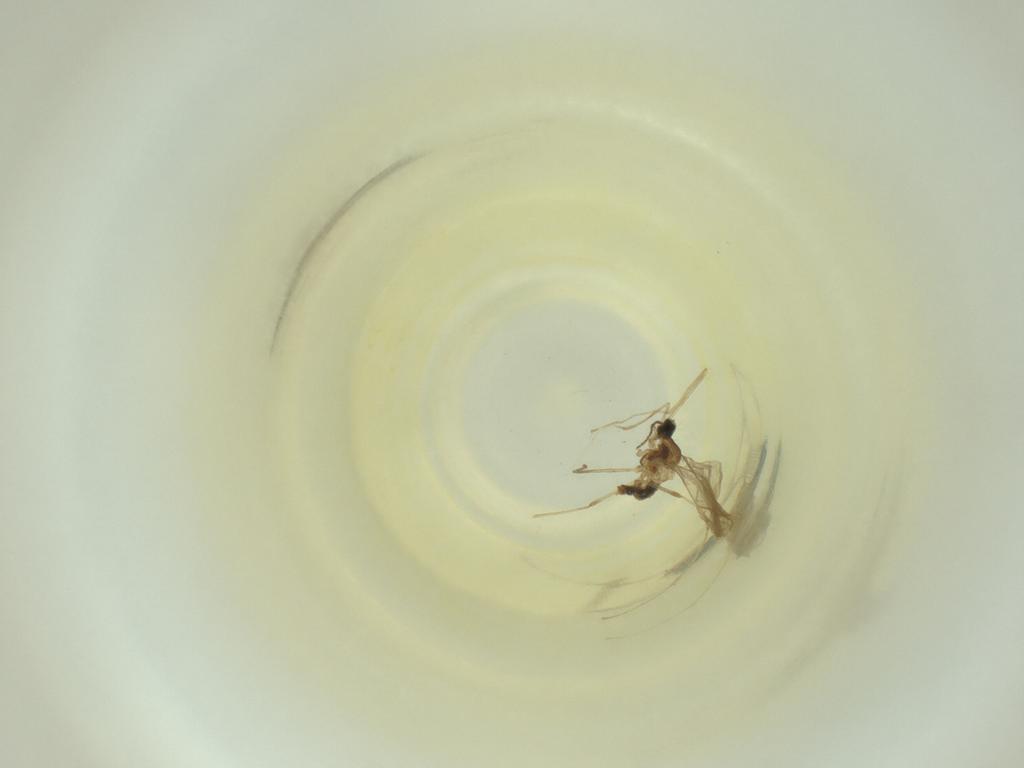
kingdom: Animalia
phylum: Arthropoda
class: Insecta
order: Diptera
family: Cecidomyiidae
